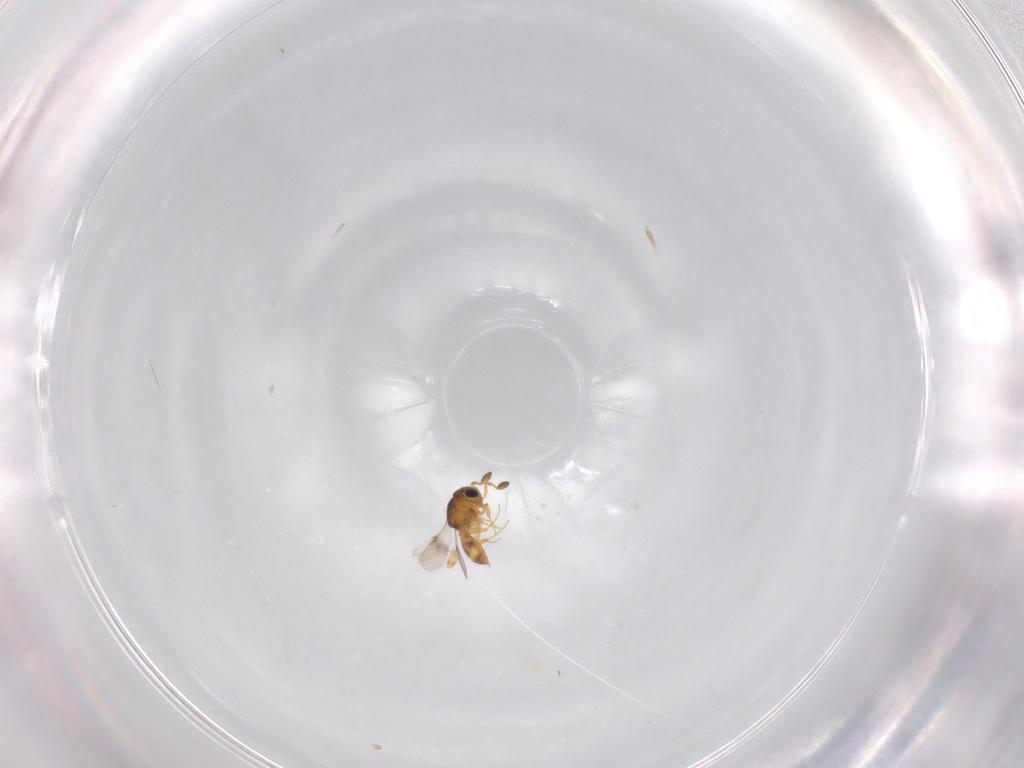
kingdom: Animalia
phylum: Arthropoda
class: Insecta
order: Hymenoptera
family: Scelionidae
